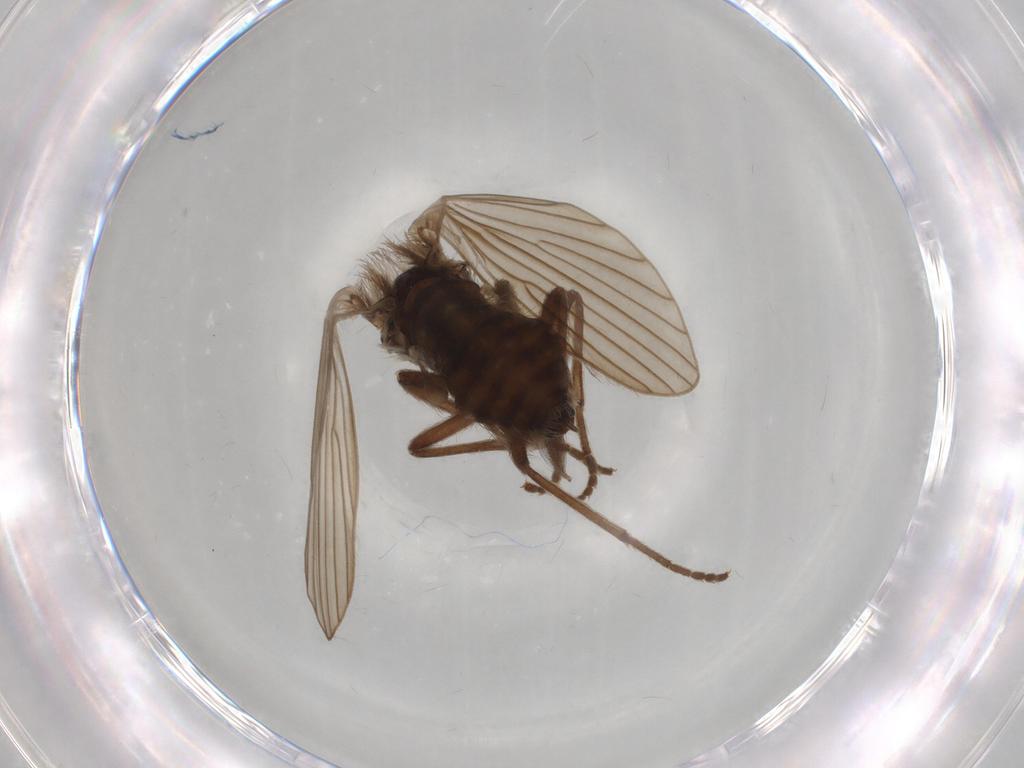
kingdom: Animalia
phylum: Arthropoda
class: Insecta
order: Diptera
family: Psychodidae
